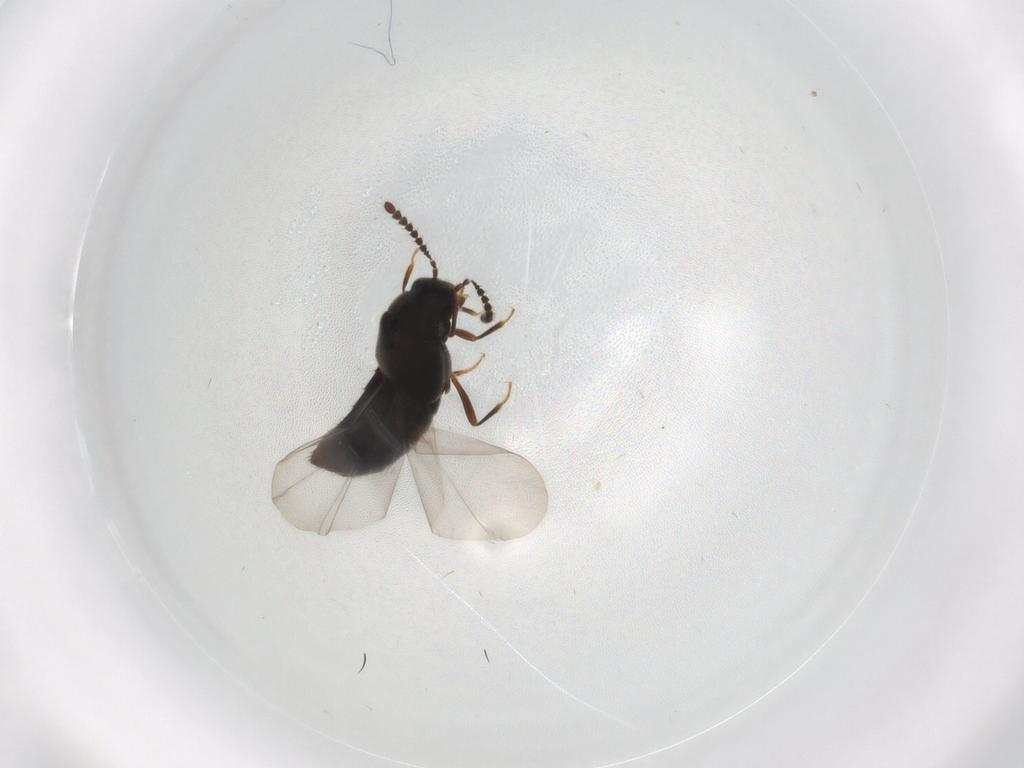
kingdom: Animalia
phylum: Arthropoda
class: Insecta
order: Coleoptera
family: Staphylinidae
